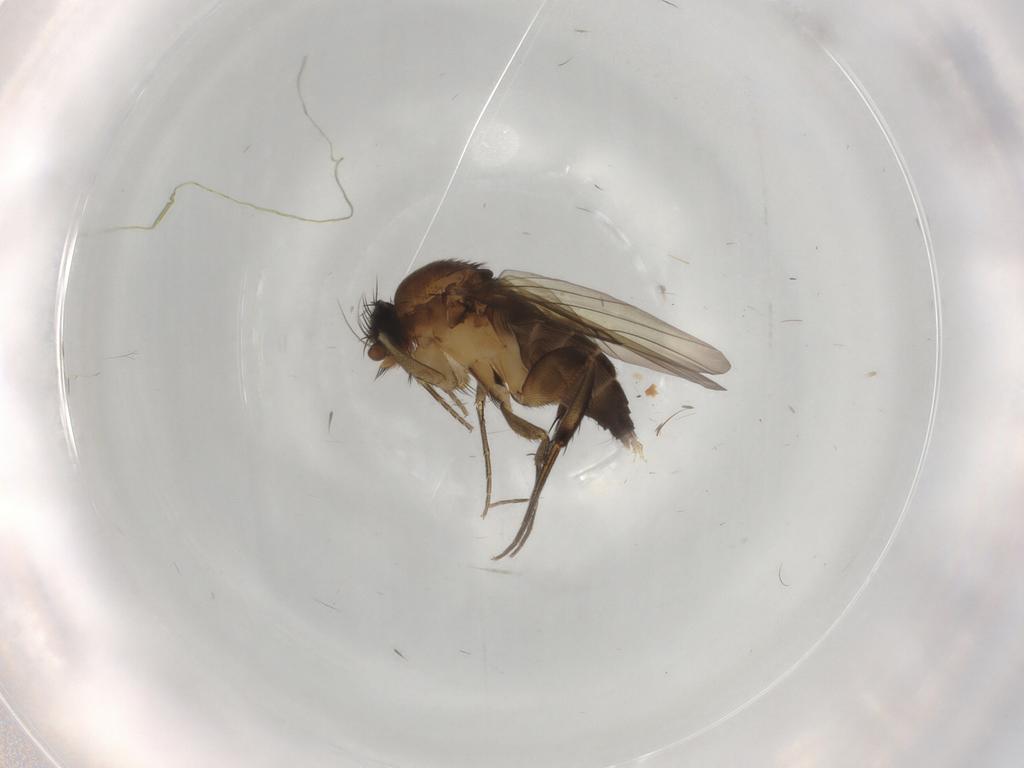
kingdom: Animalia
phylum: Arthropoda
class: Insecta
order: Diptera
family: Phoridae
